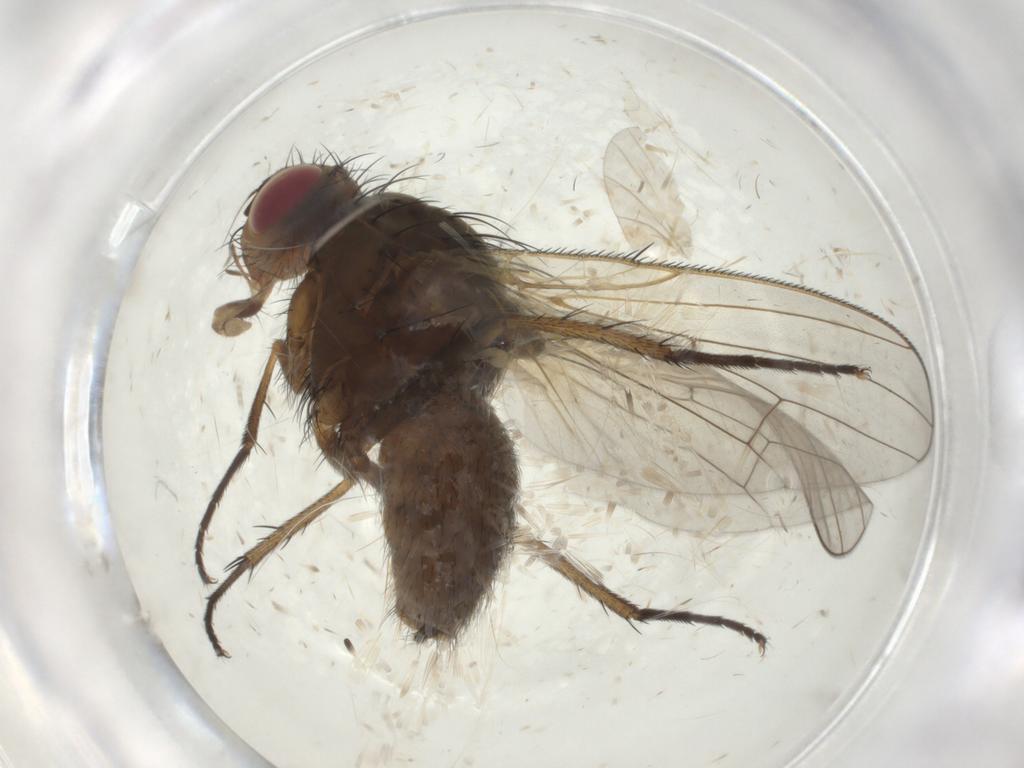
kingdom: Animalia
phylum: Arthropoda
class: Insecta
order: Diptera
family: Anthomyiidae
